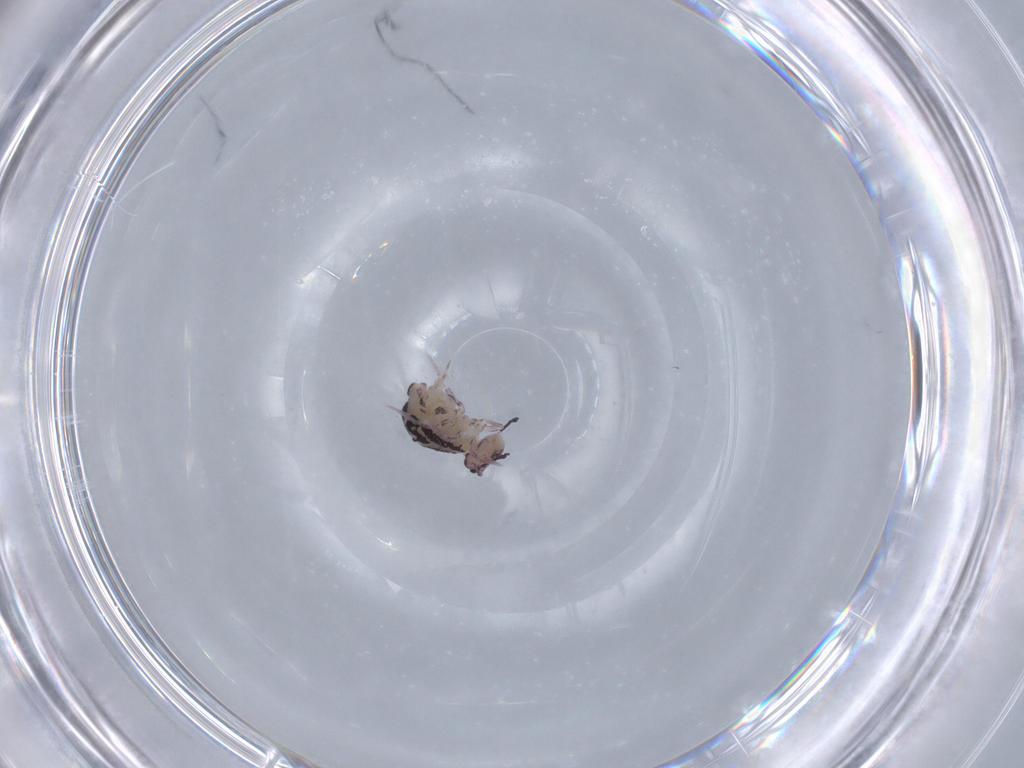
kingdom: Animalia
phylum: Arthropoda
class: Collembola
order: Symphypleona
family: Dicyrtomidae
